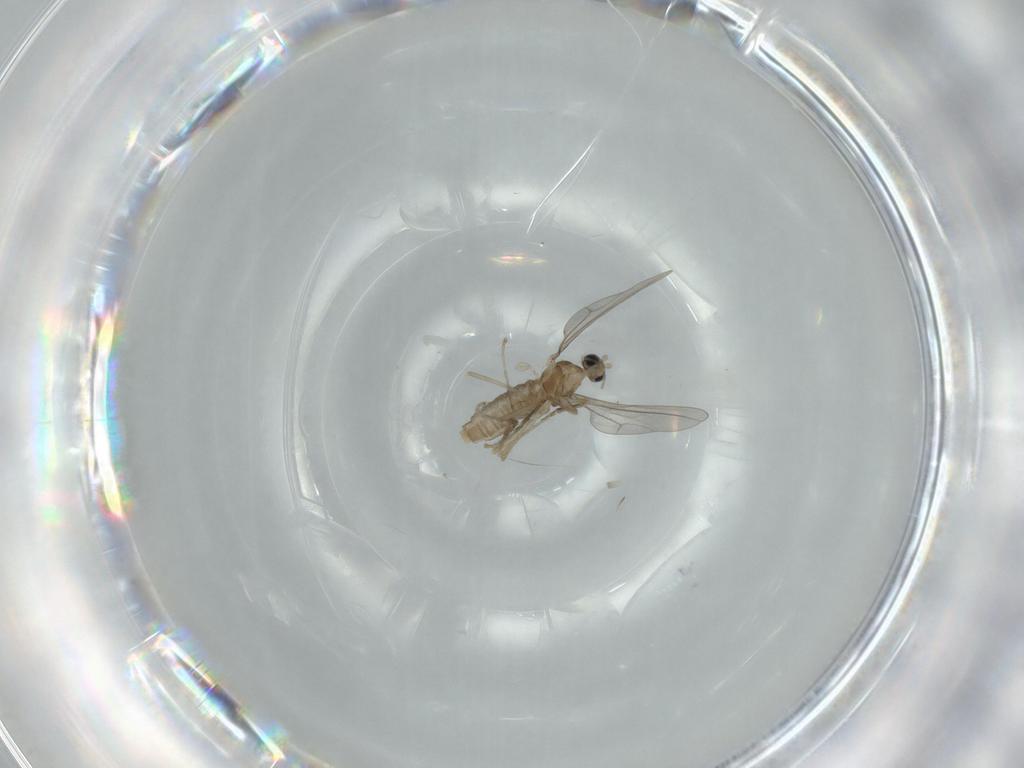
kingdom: Animalia
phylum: Arthropoda
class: Insecta
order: Diptera
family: Cecidomyiidae
